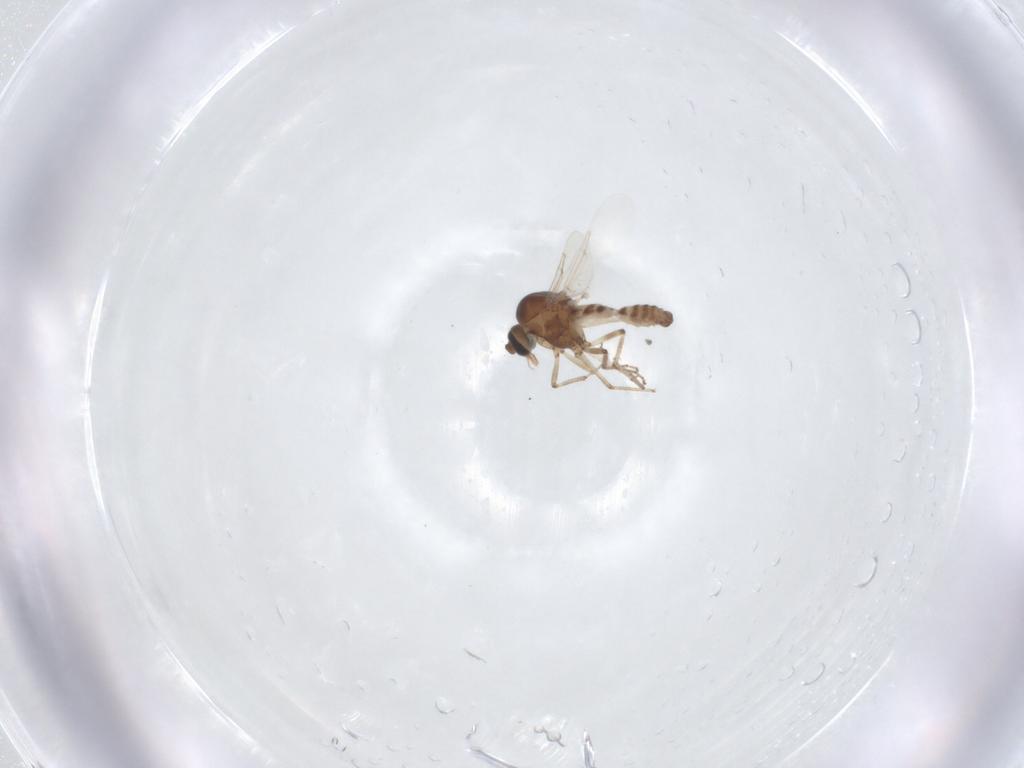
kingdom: Animalia
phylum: Arthropoda
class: Insecta
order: Diptera
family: Ceratopogonidae
